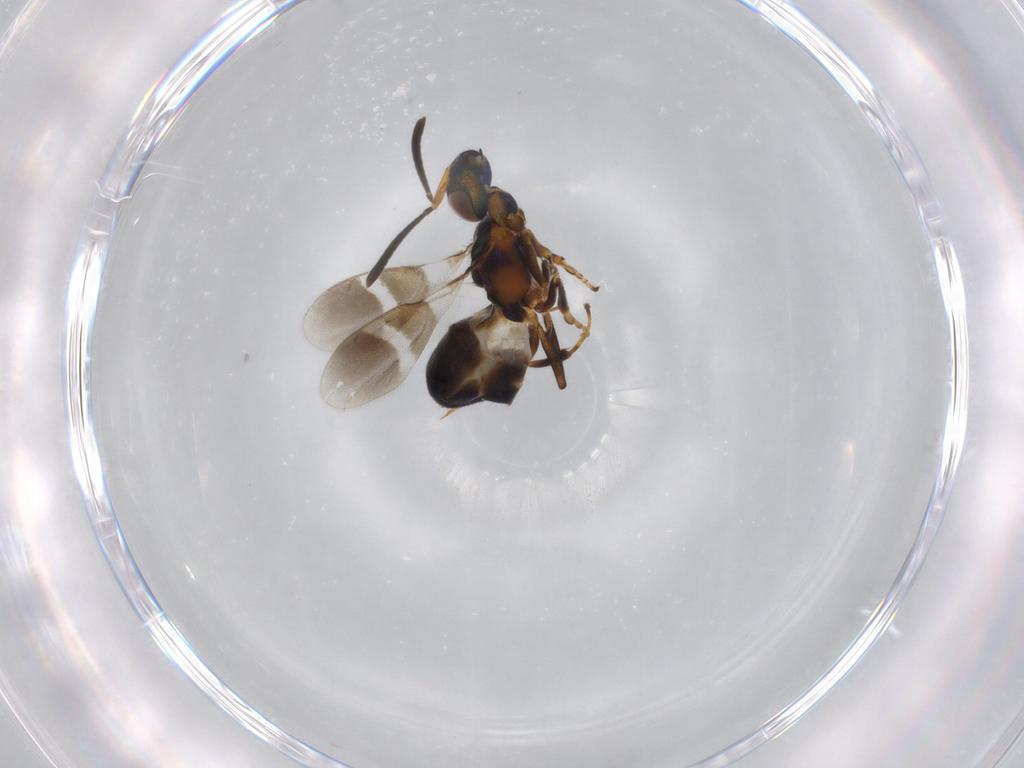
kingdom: Animalia
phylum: Arthropoda
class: Insecta
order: Hymenoptera
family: Eupelmidae
